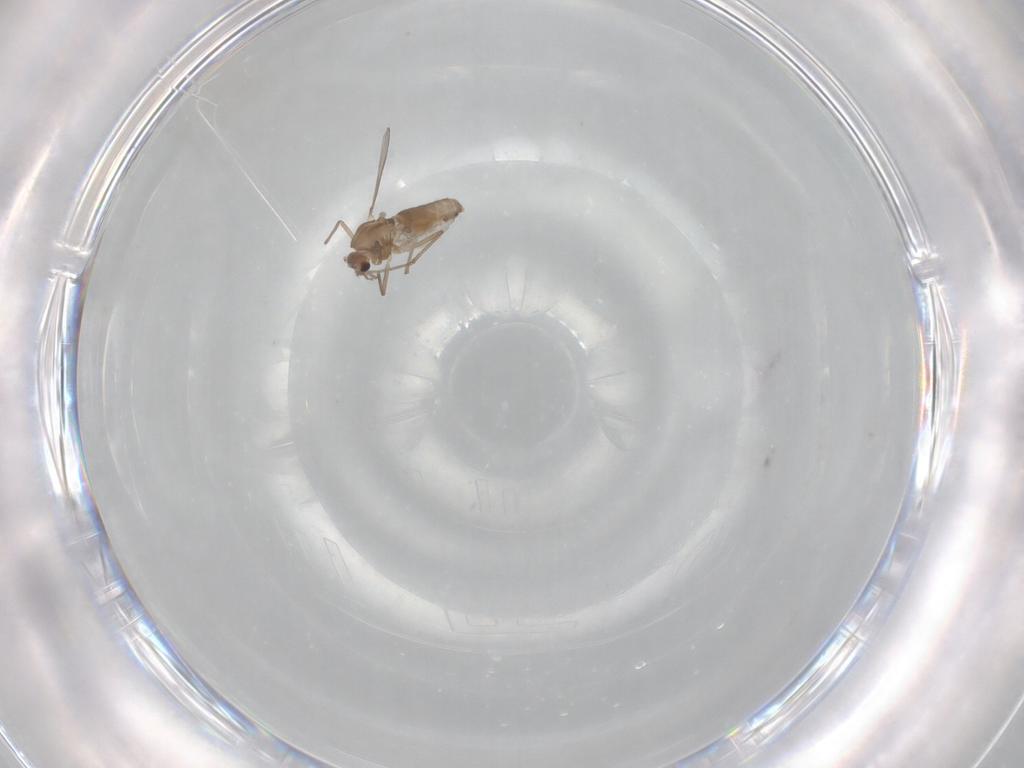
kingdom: Animalia
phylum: Arthropoda
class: Insecta
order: Diptera
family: Chironomidae
